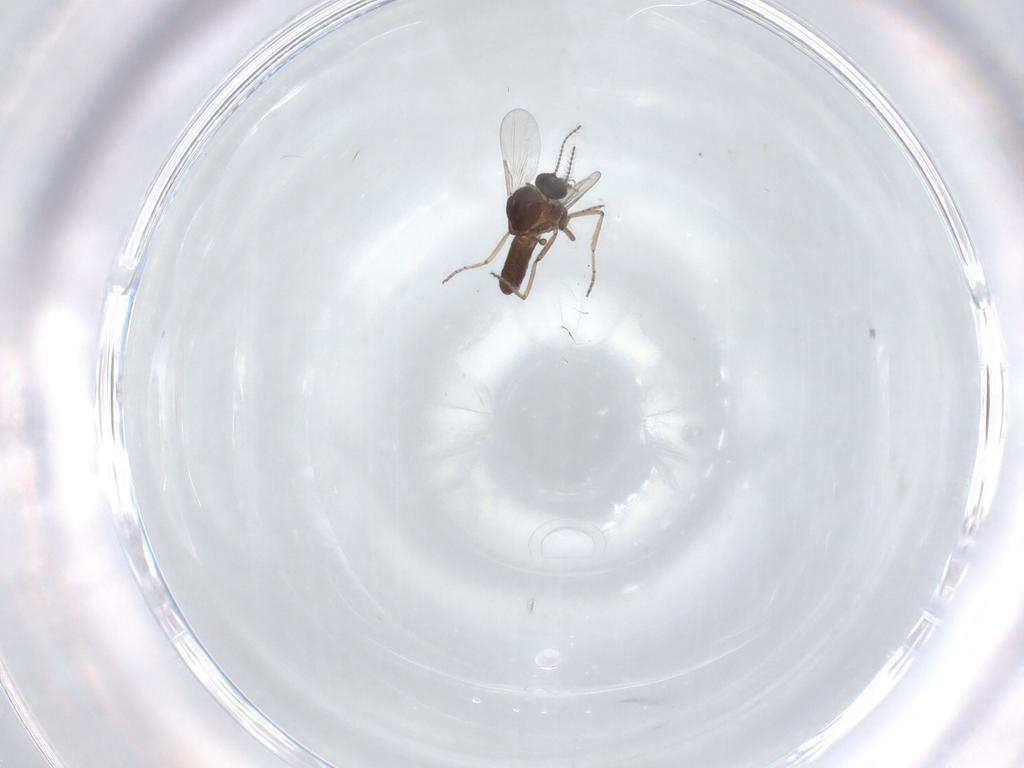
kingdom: Animalia
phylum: Arthropoda
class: Insecta
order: Diptera
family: Ceratopogonidae
